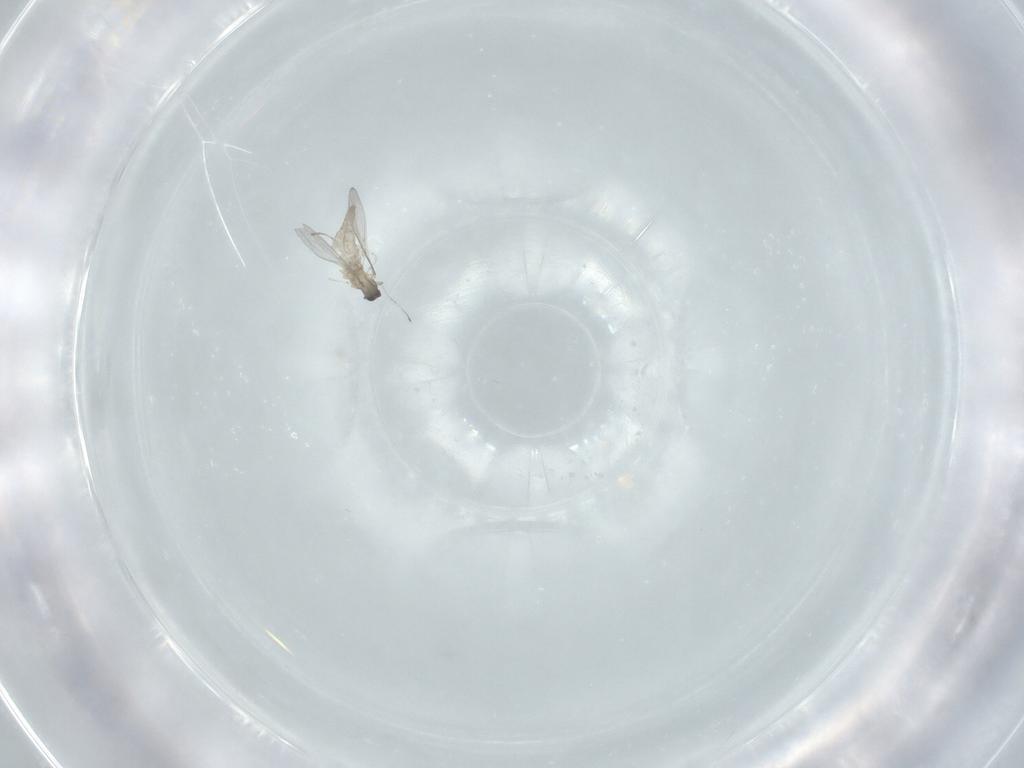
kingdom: Animalia
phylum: Arthropoda
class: Insecta
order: Diptera
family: Cecidomyiidae
